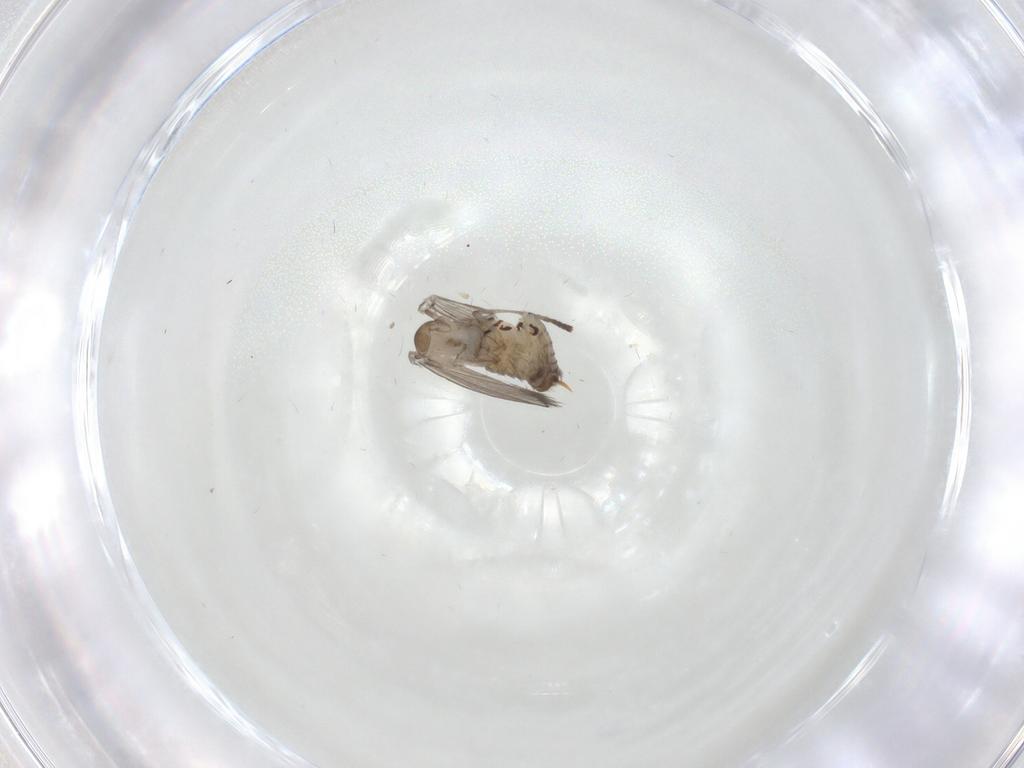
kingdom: Animalia
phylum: Arthropoda
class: Insecta
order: Diptera
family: Psychodidae
